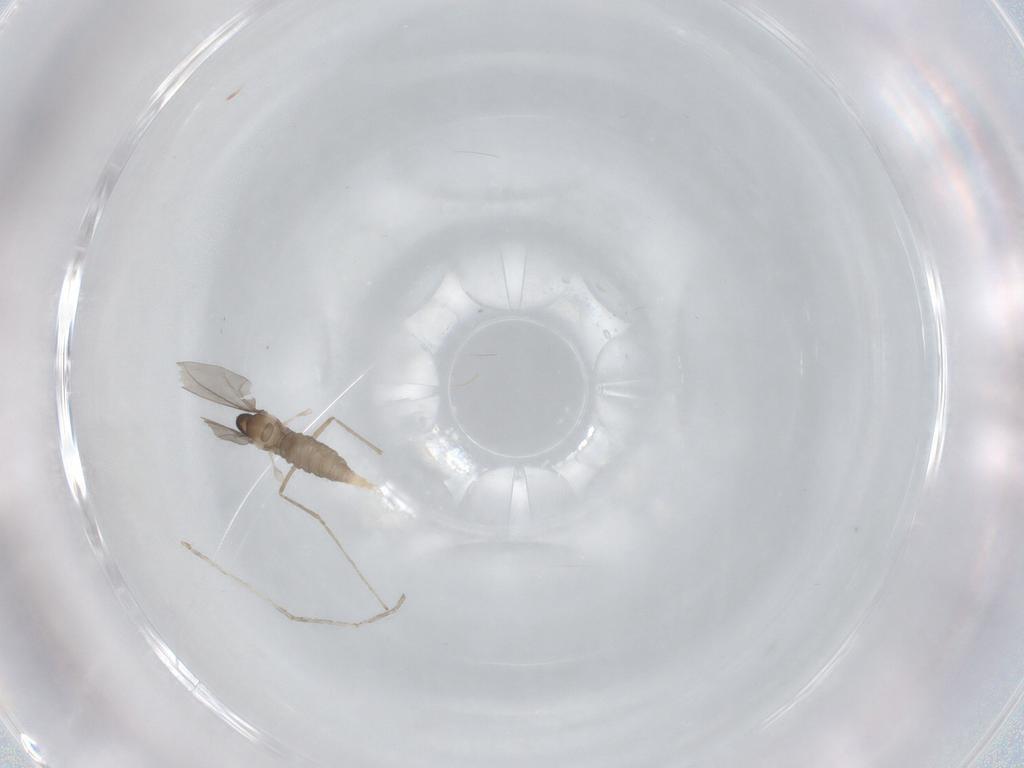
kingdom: Animalia
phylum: Arthropoda
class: Insecta
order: Diptera
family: Cecidomyiidae
